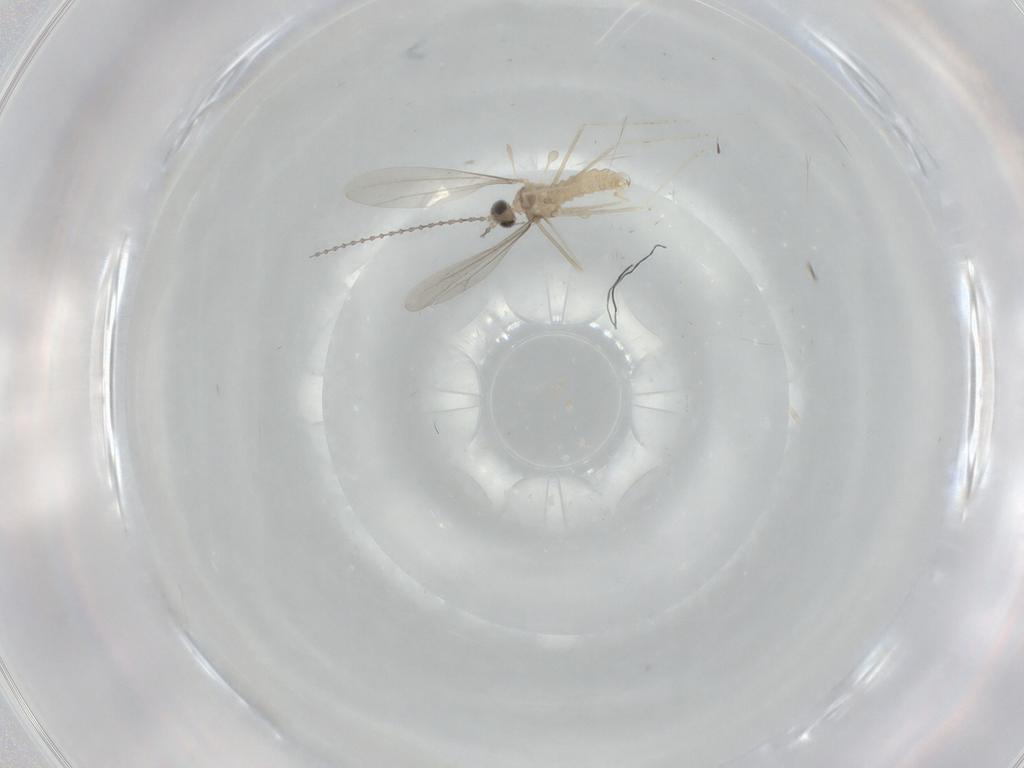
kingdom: Animalia
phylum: Arthropoda
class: Insecta
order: Diptera
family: Cecidomyiidae
